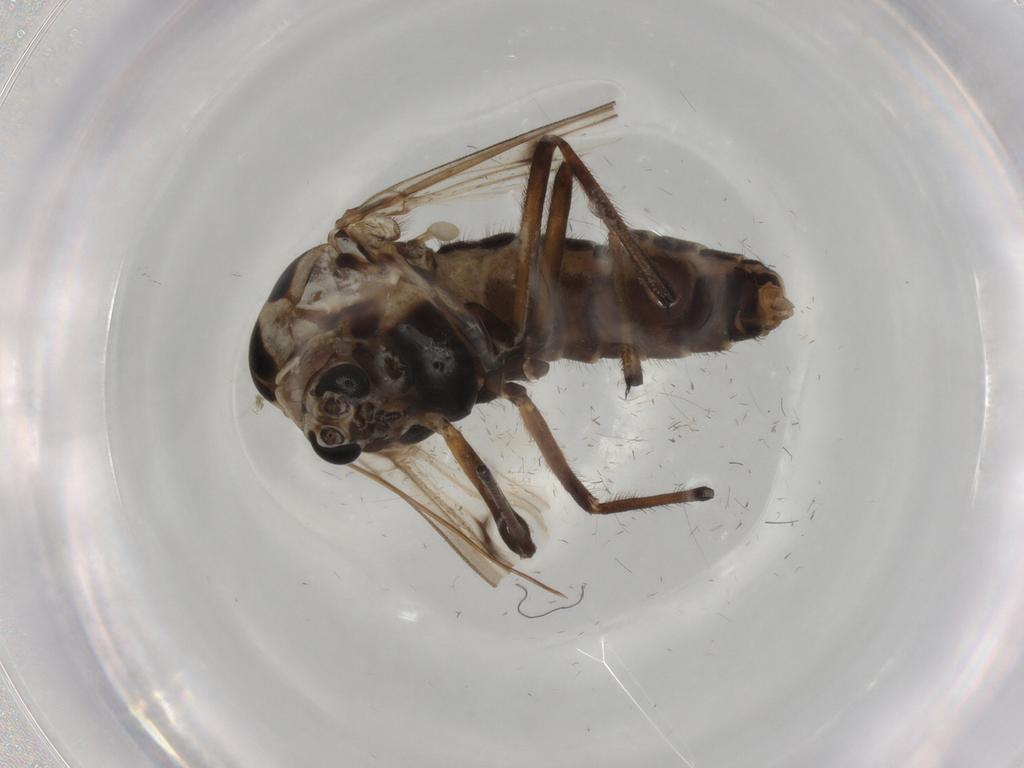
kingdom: Animalia
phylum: Arthropoda
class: Insecta
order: Diptera
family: Chironomidae
